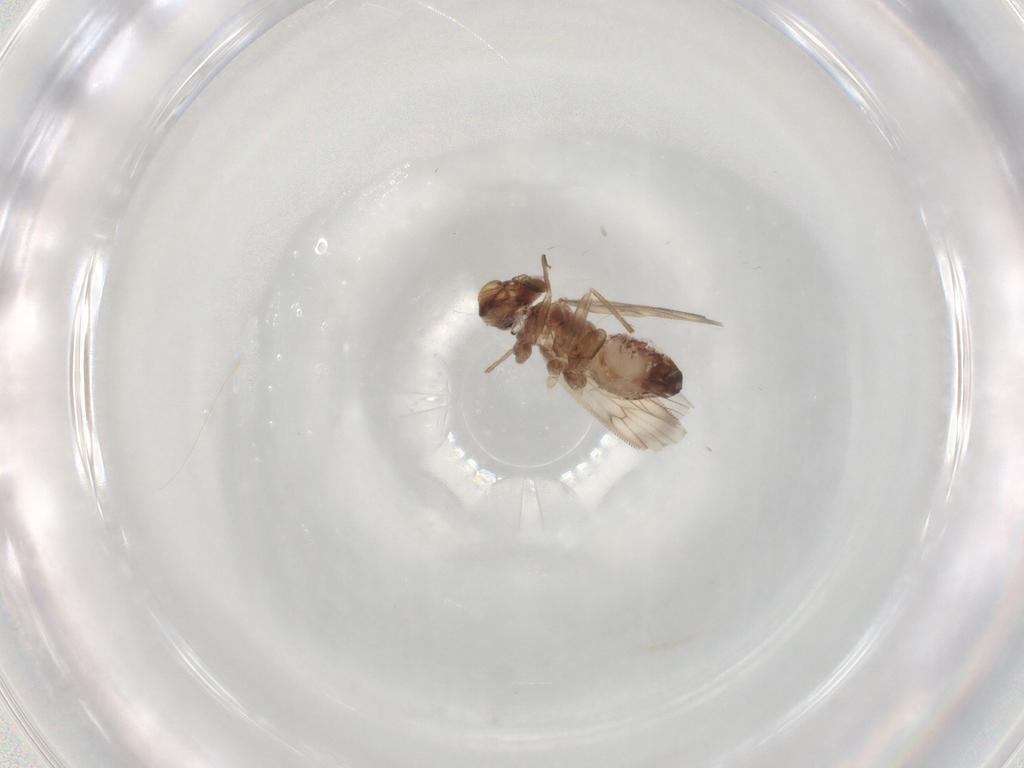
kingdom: Animalia
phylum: Arthropoda
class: Insecta
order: Psocodea
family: Lepidopsocidae
